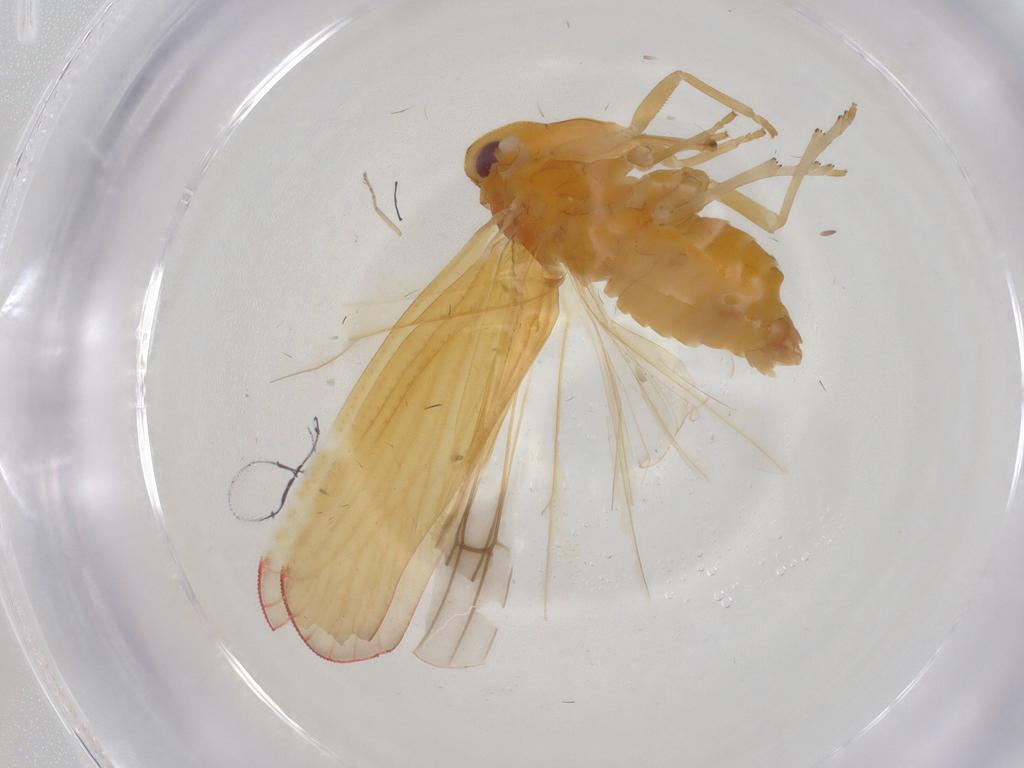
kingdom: Animalia
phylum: Arthropoda
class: Insecta
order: Hemiptera
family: Derbidae
